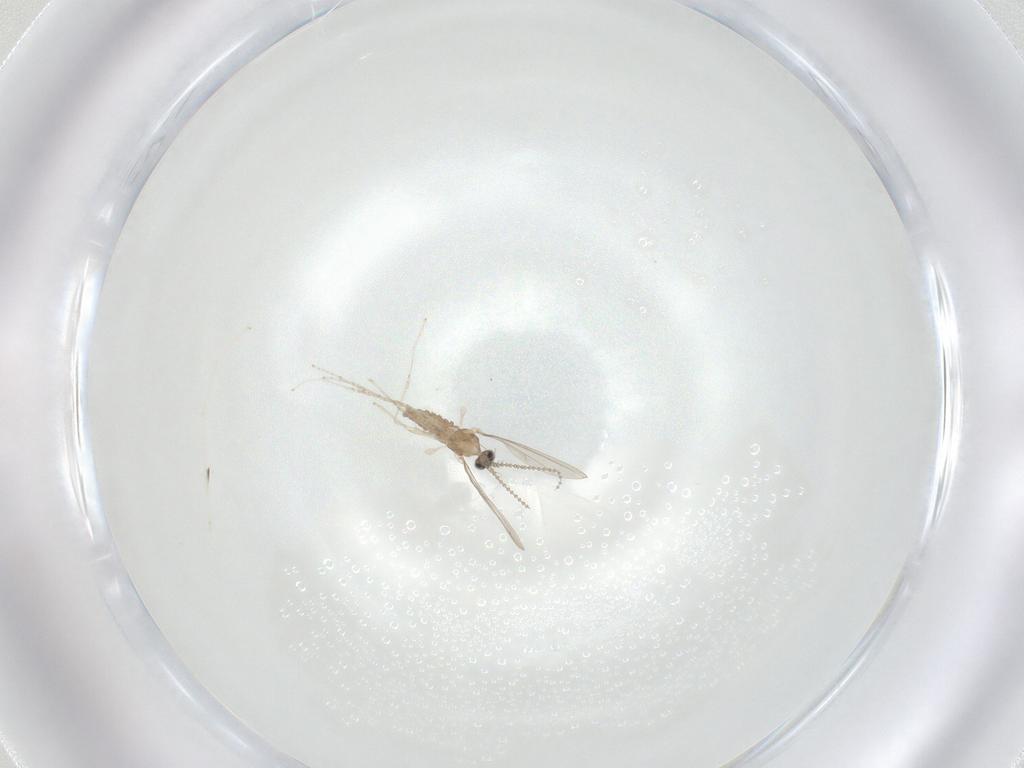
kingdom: Animalia
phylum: Arthropoda
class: Insecta
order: Diptera
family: Cecidomyiidae
